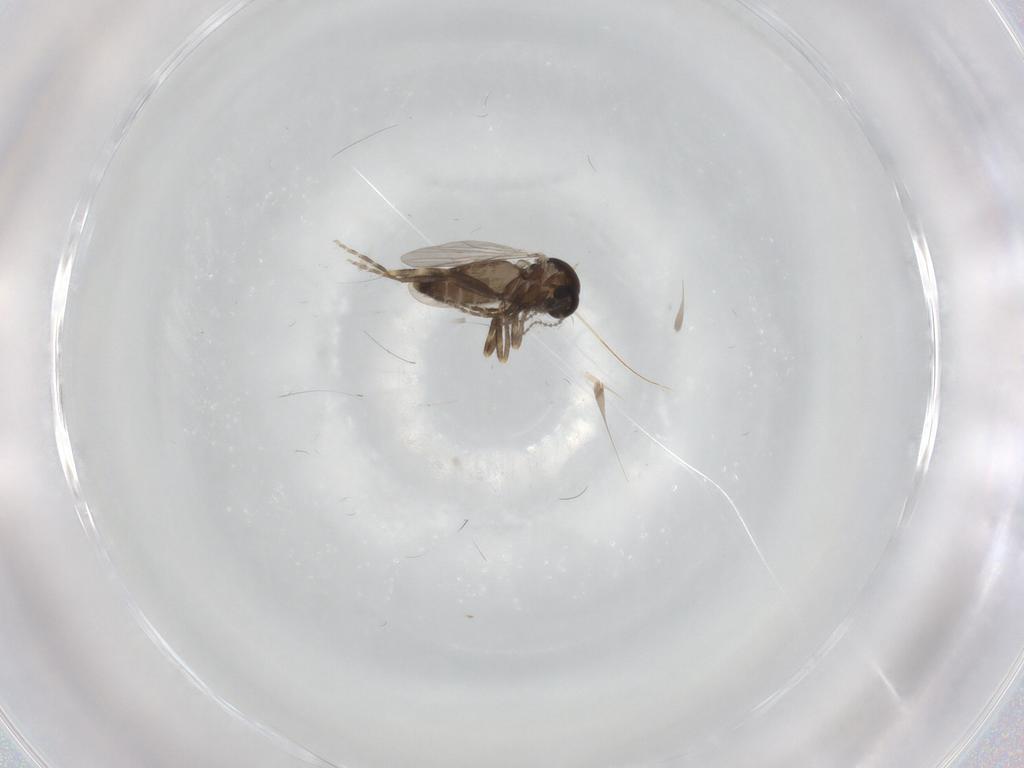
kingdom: Animalia
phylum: Arthropoda
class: Insecta
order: Diptera
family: Ceratopogonidae
